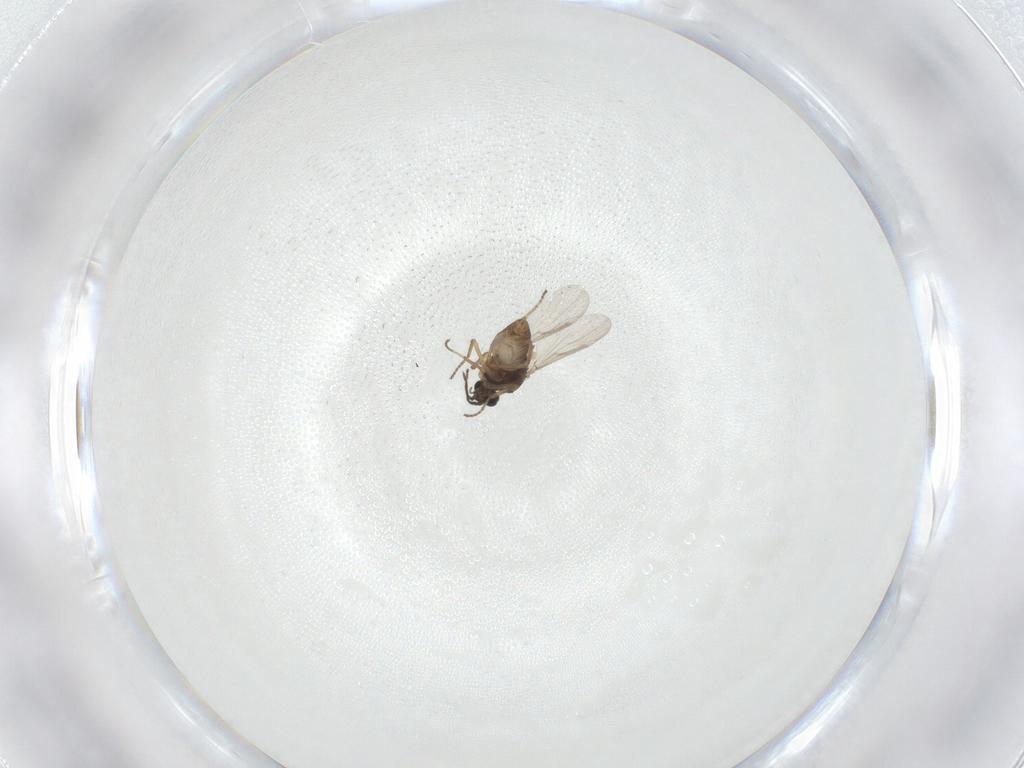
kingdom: Animalia
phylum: Arthropoda
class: Insecta
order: Diptera
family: Ceratopogonidae
